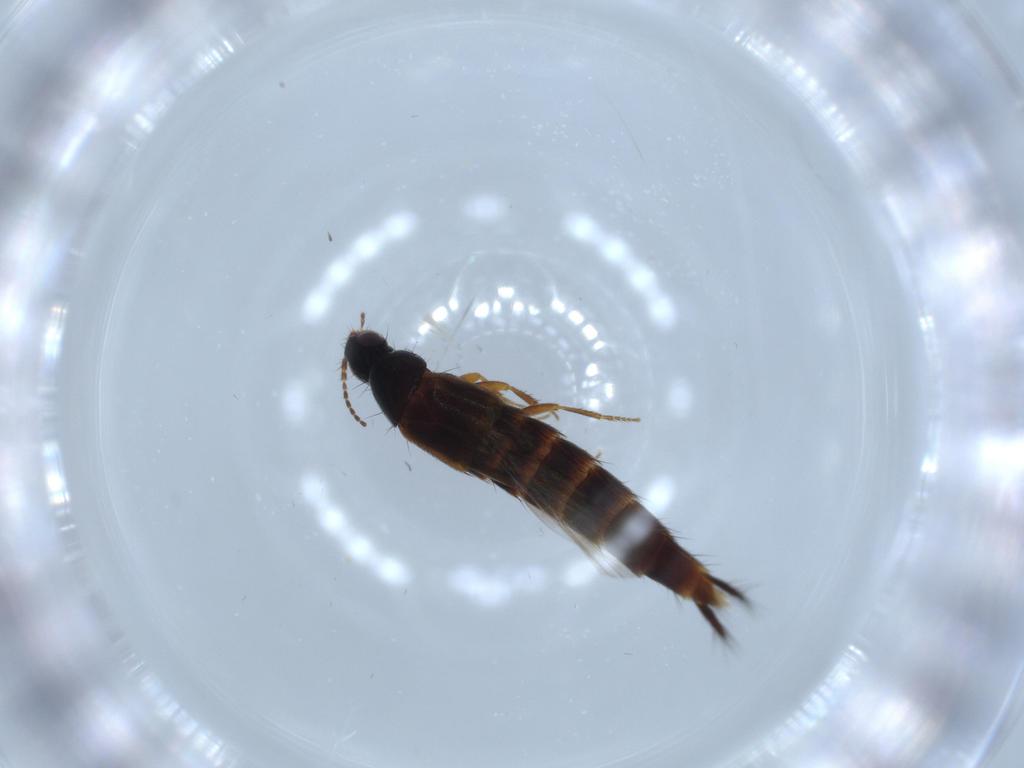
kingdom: Animalia
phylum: Arthropoda
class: Insecta
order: Coleoptera
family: Staphylinidae
